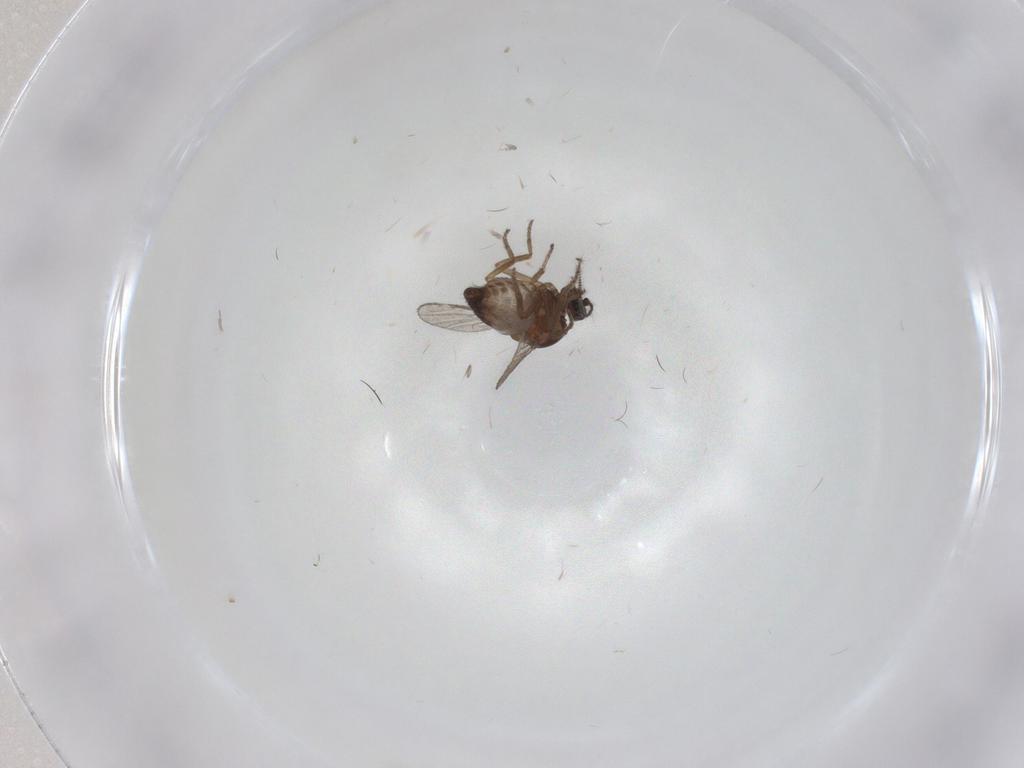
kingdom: Animalia
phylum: Arthropoda
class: Insecta
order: Diptera
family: Cecidomyiidae
